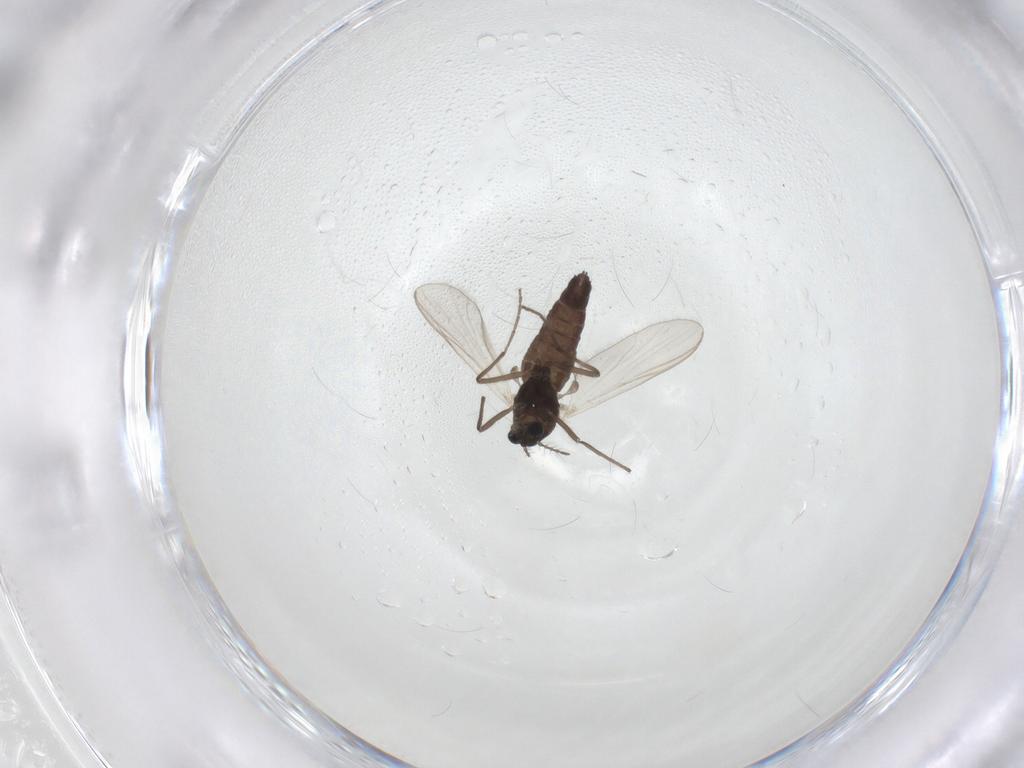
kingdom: Animalia
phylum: Arthropoda
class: Insecta
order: Diptera
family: Chironomidae
